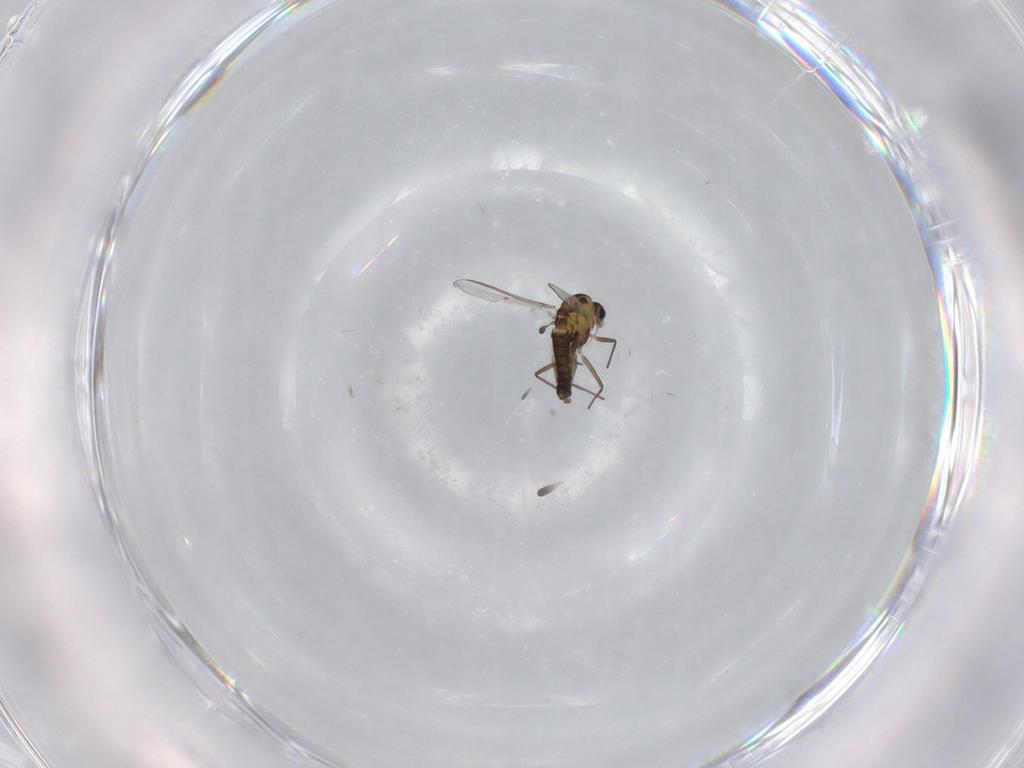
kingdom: Animalia
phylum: Arthropoda
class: Insecta
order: Diptera
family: Chironomidae
